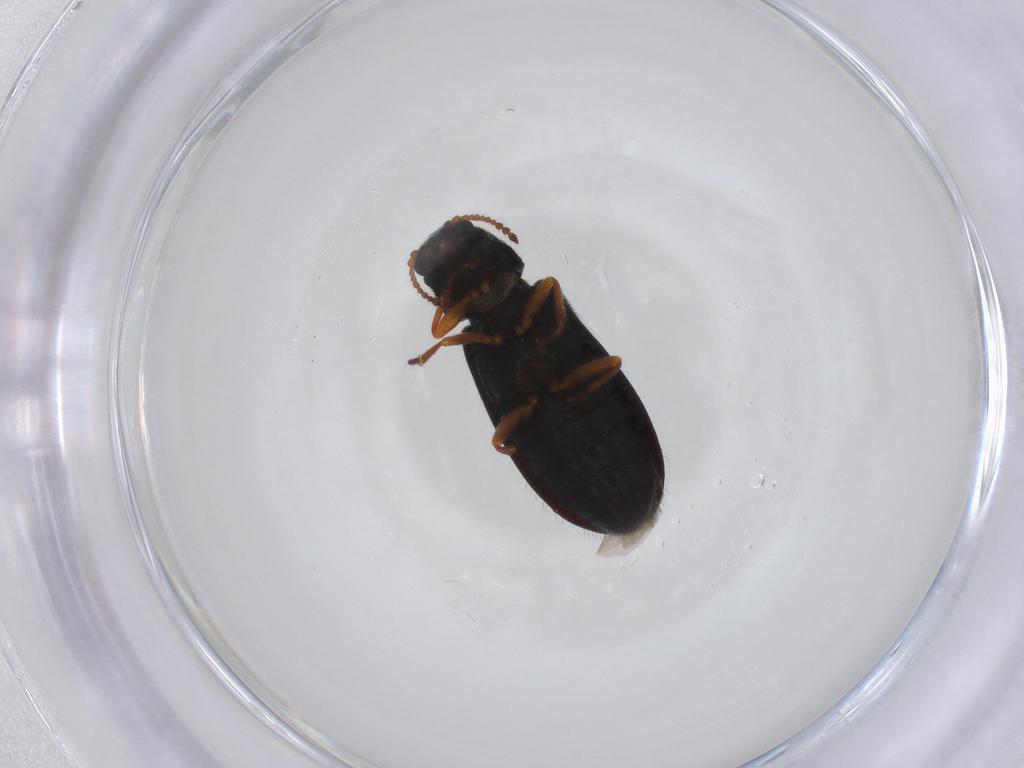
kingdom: Animalia
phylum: Arthropoda
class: Insecta
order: Coleoptera
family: Melyridae
